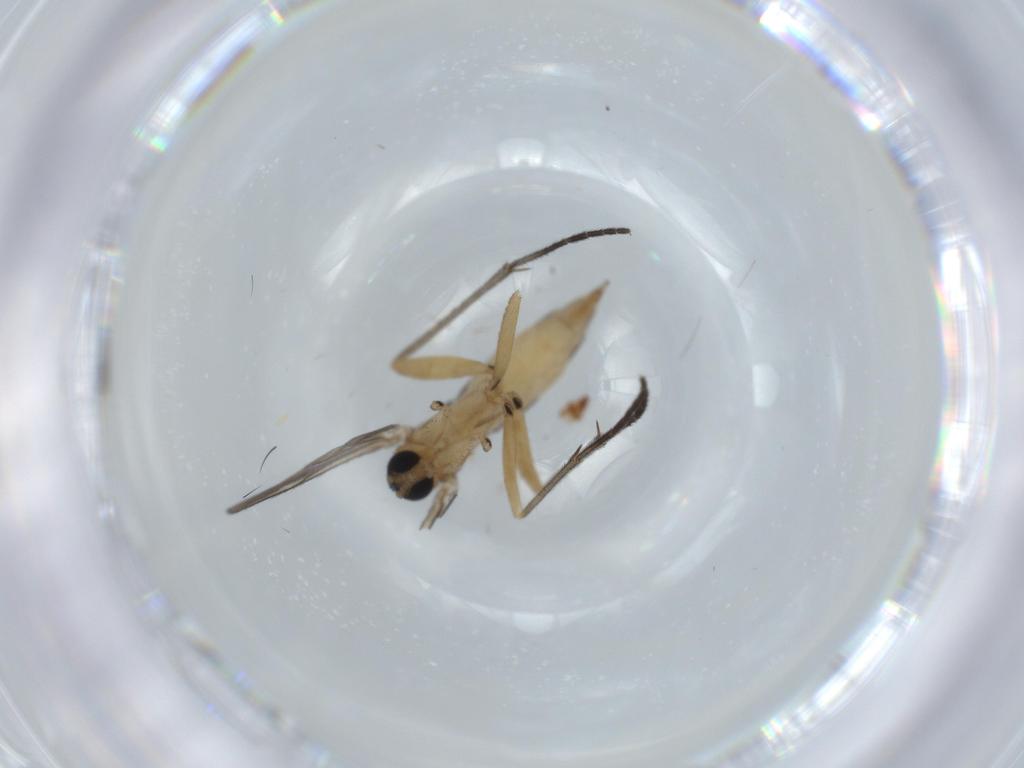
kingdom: Animalia
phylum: Arthropoda
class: Insecta
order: Diptera
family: Sciaridae
